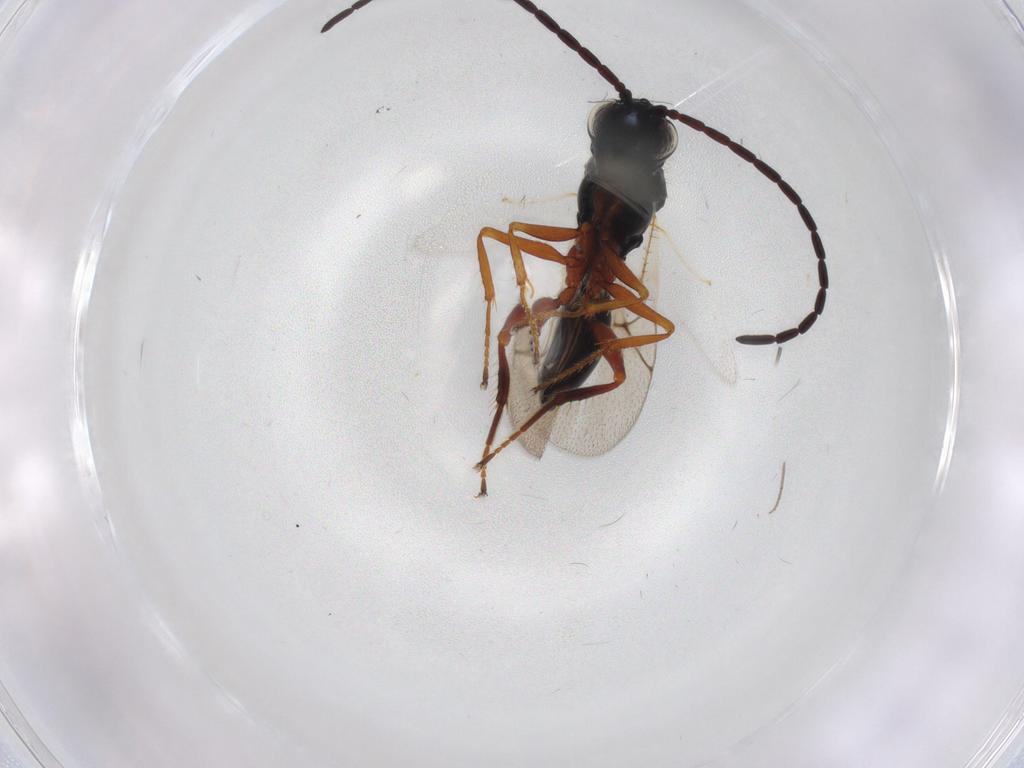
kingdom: Animalia
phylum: Arthropoda
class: Insecta
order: Hymenoptera
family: Figitidae
